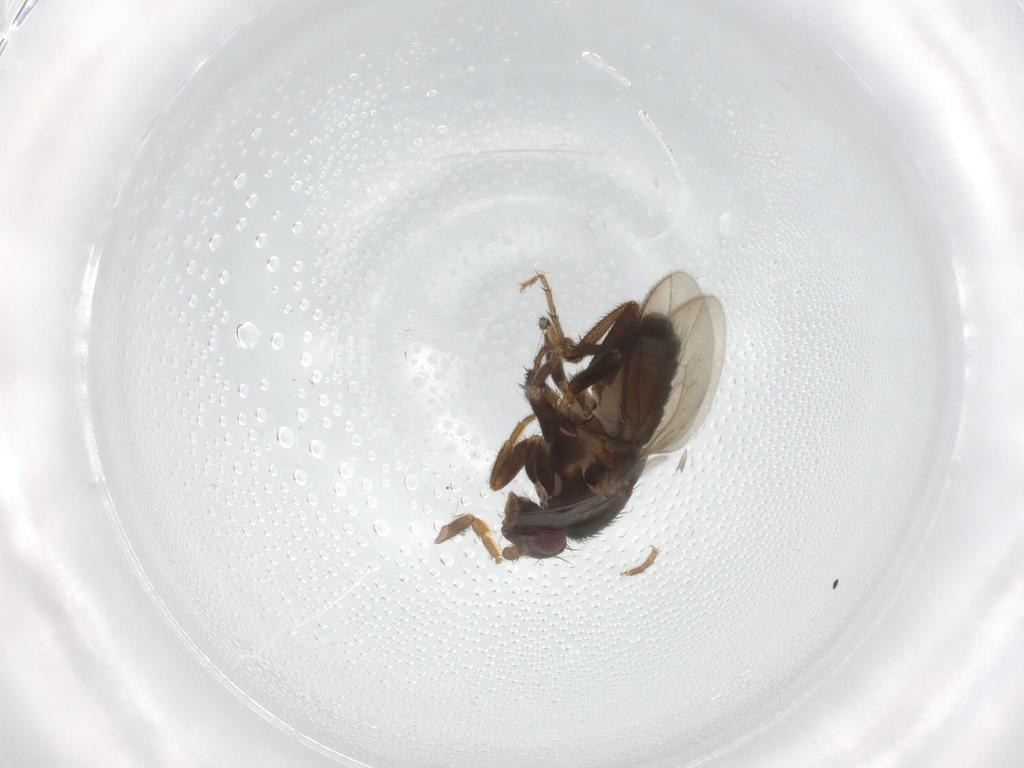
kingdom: Animalia
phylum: Arthropoda
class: Insecta
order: Diptera
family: Sphaeroceridae
